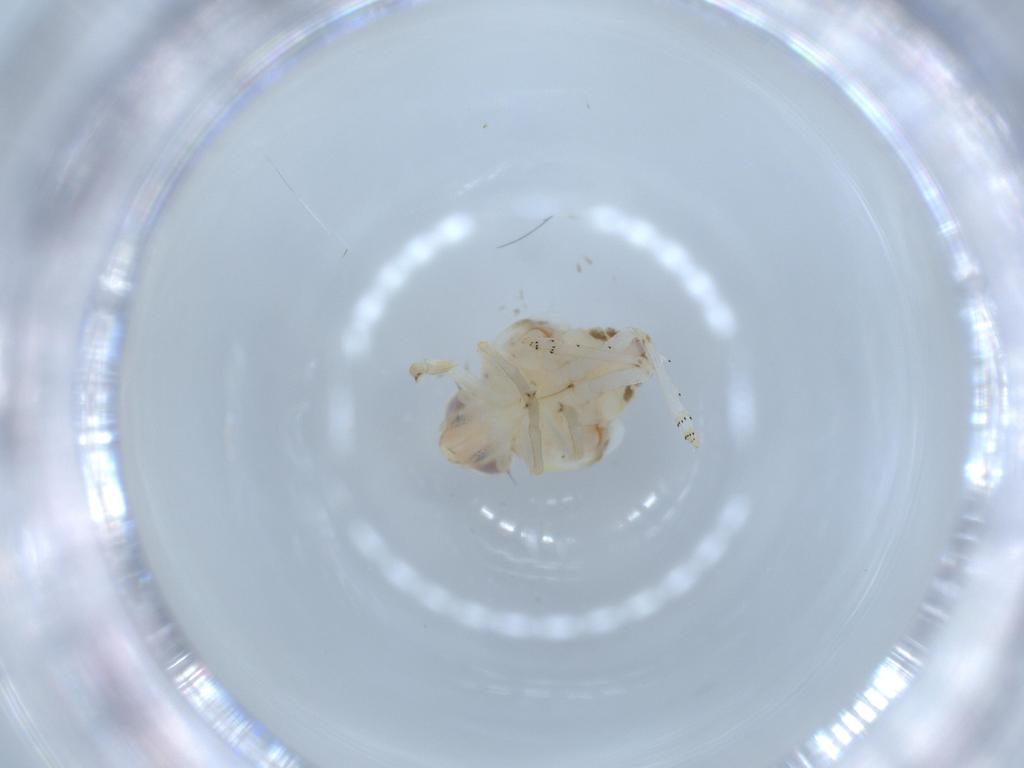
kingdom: Animalia
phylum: Arthropoda
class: Insecta
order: Hemiptera
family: Nogodinidae
